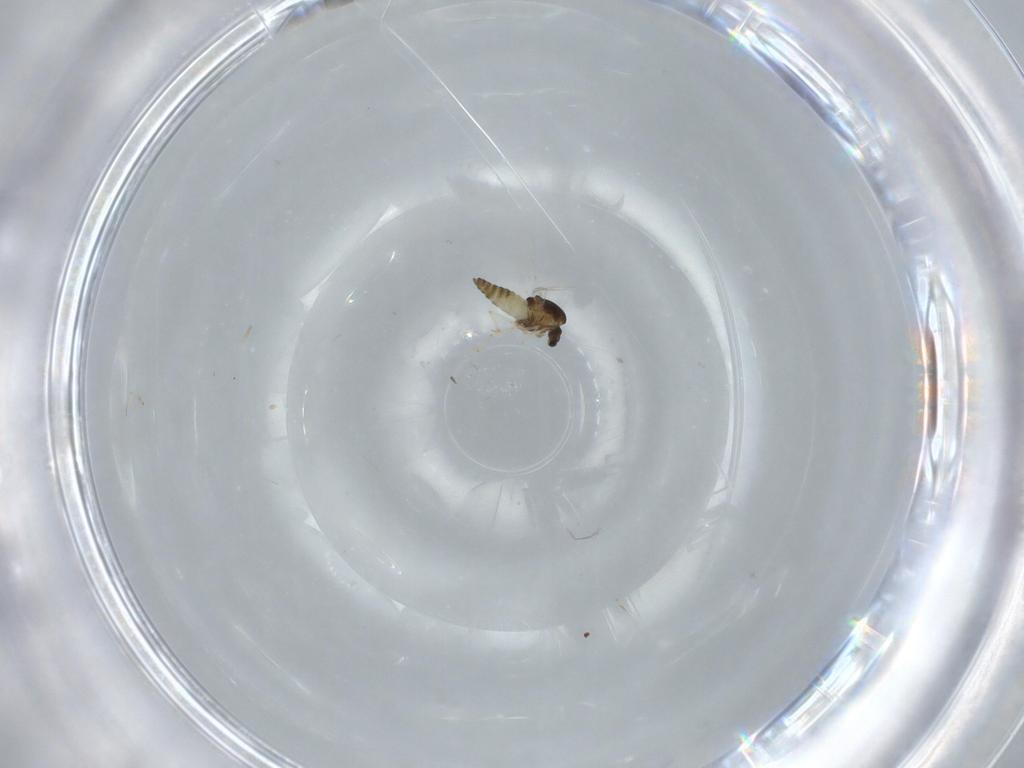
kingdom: Animalia
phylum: Arthropoda
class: Insecta
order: Diptera
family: Chironomidae
